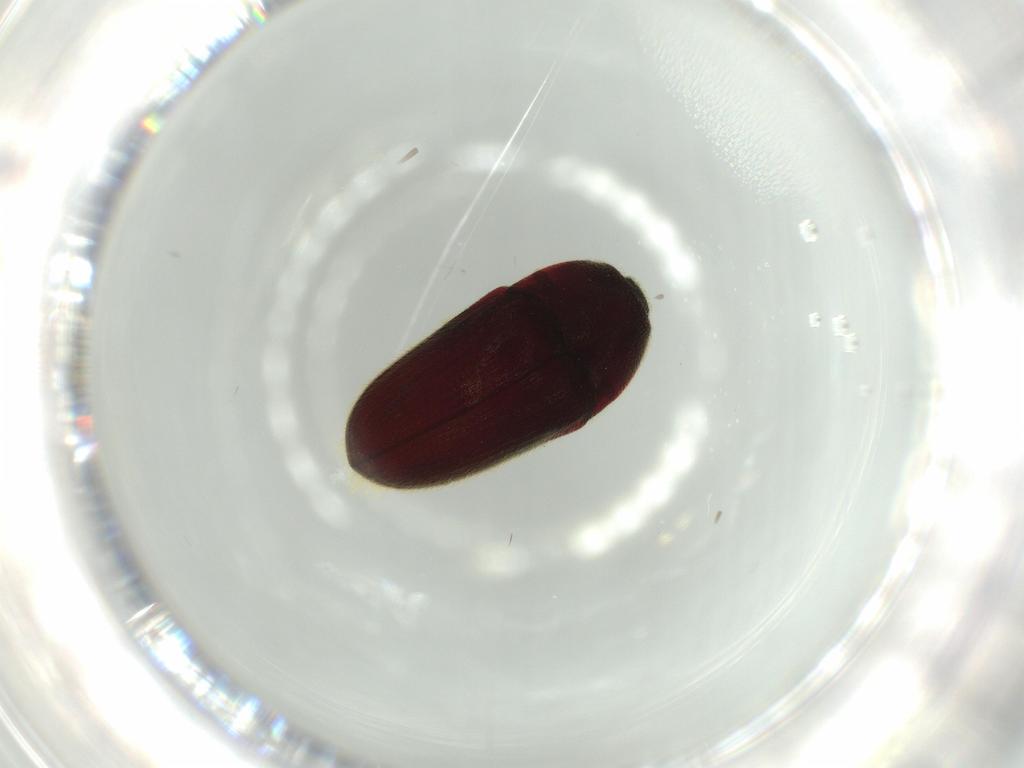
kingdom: Animalia
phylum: Arthropoda
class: Insecta
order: Coleoptera
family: Throscidae
